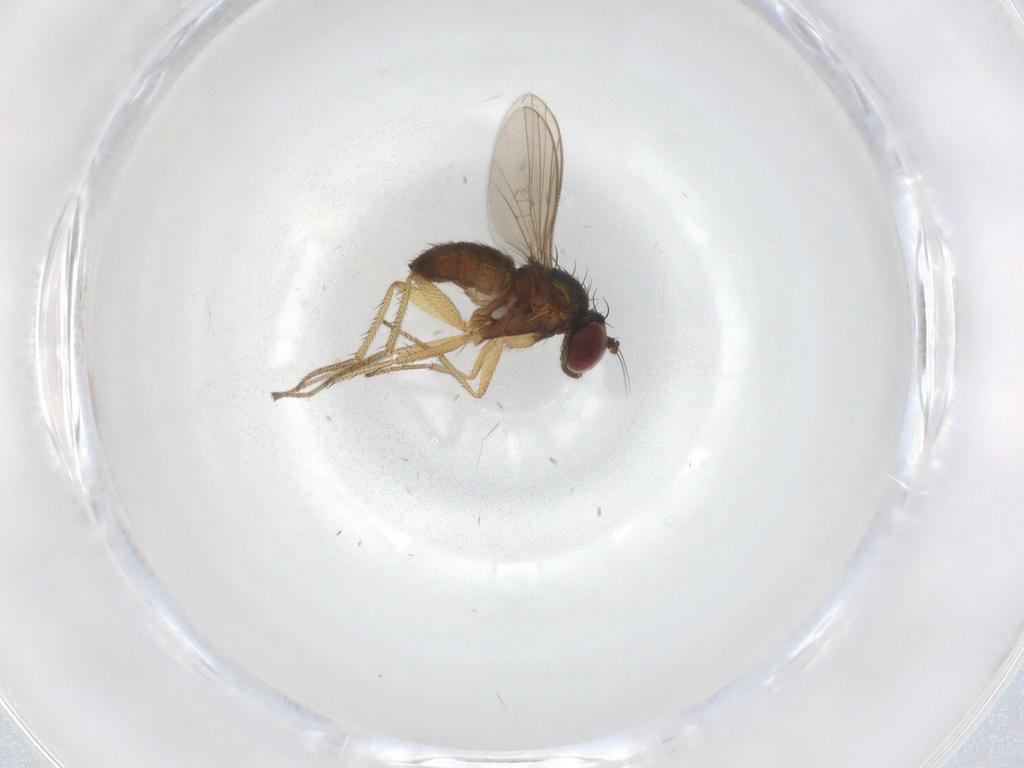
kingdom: Animalia
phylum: Arthropoda
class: Insecta
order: Diptera
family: Dolichopodidae
